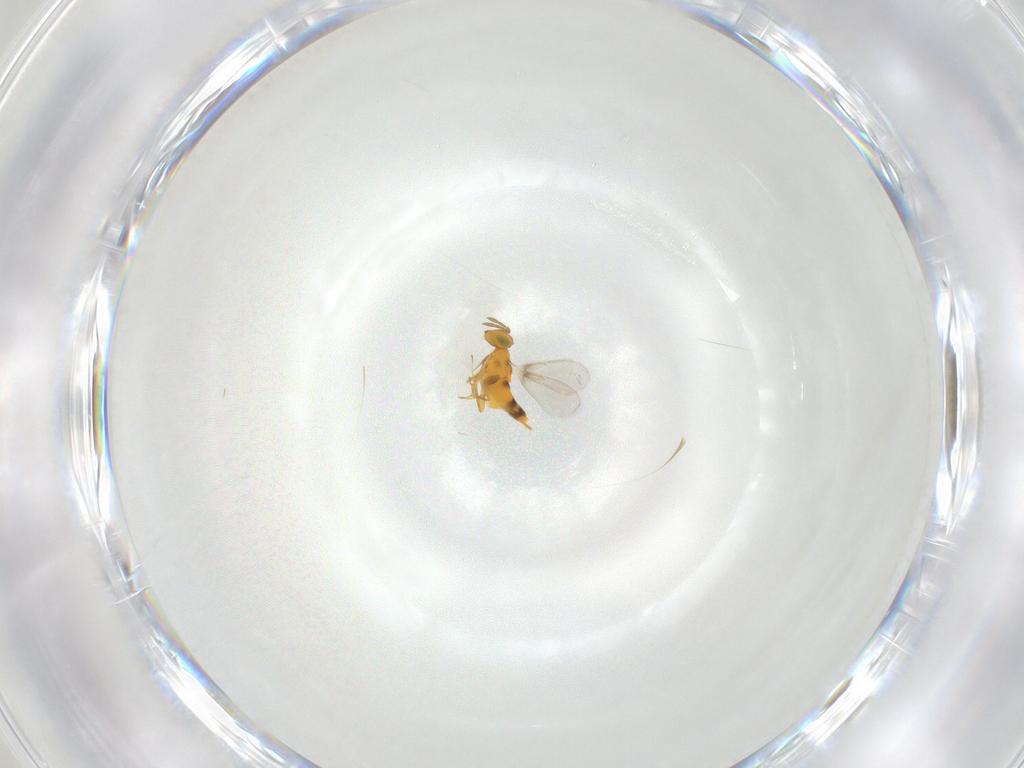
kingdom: Animalia
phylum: Arthropoda
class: Insecta
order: Hymenoptera
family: Aphelinidae
